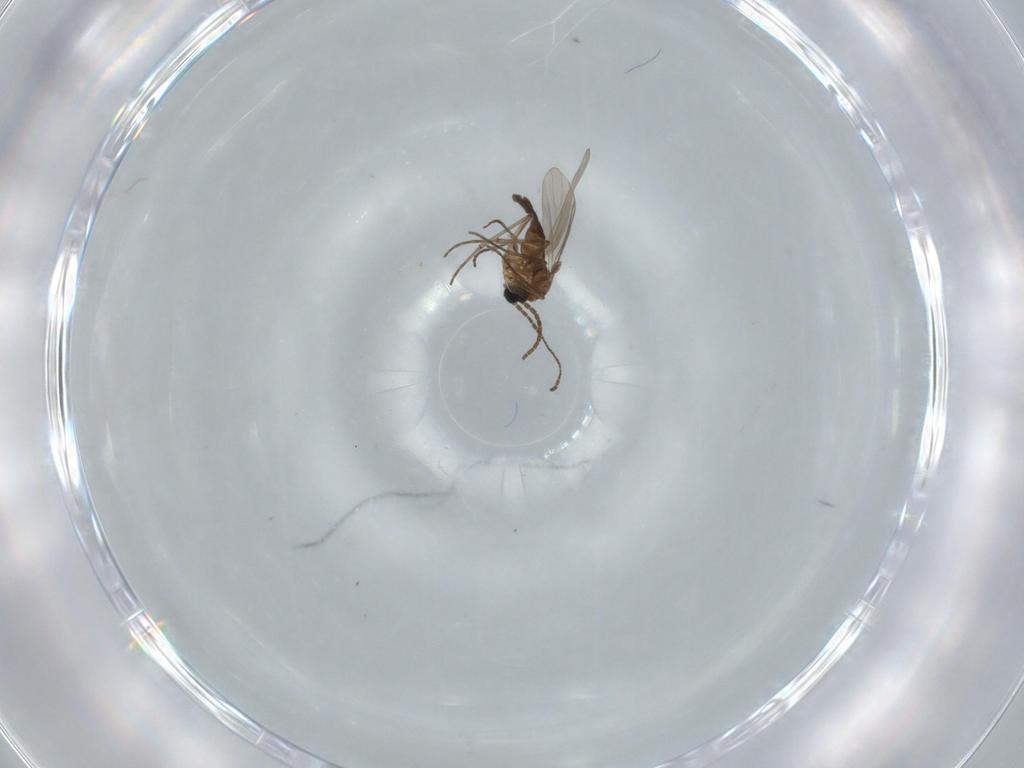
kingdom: Animalia
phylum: Arthropoda
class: Insecta
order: Diptera
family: Sciaridae
